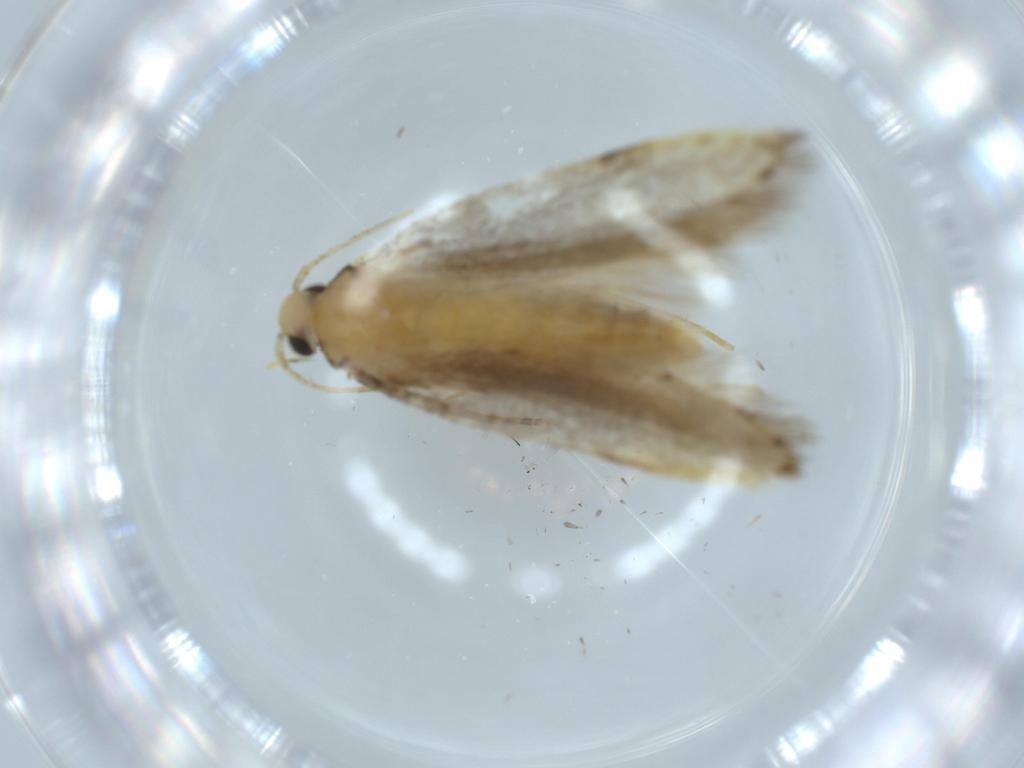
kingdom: Animalia
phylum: Arthropoda
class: Insecta
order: Lepidoptera
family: Autostichidae
